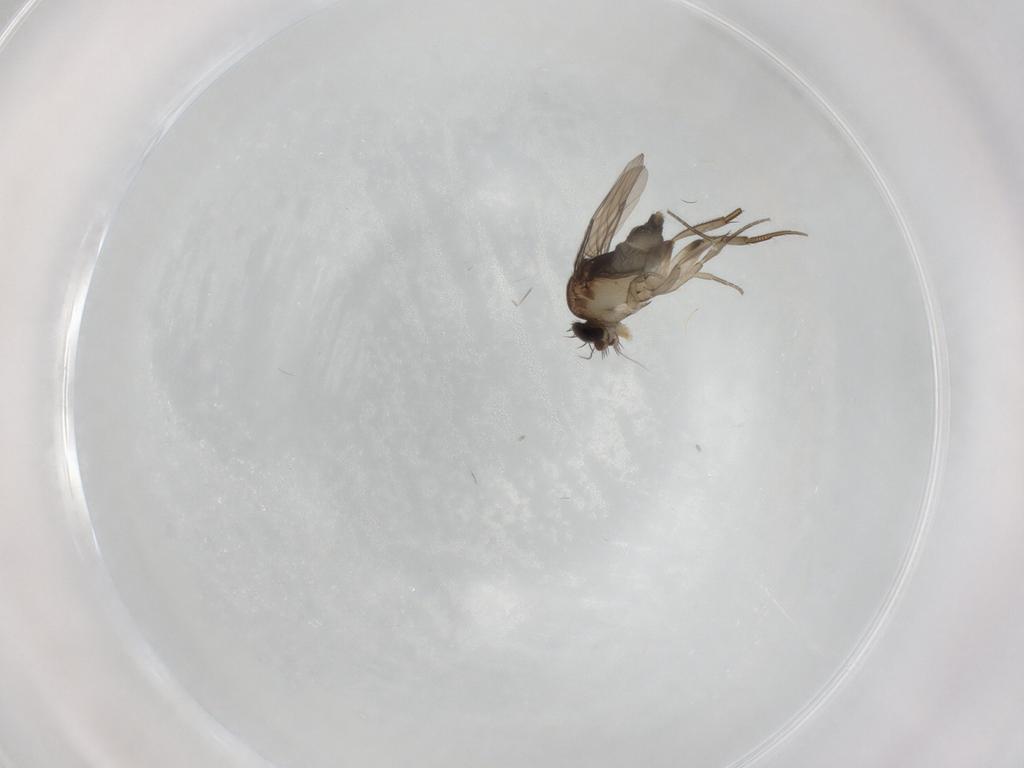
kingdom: Animalia
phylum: Arthropoda
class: Insecta
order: Diptera
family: Phoridae
